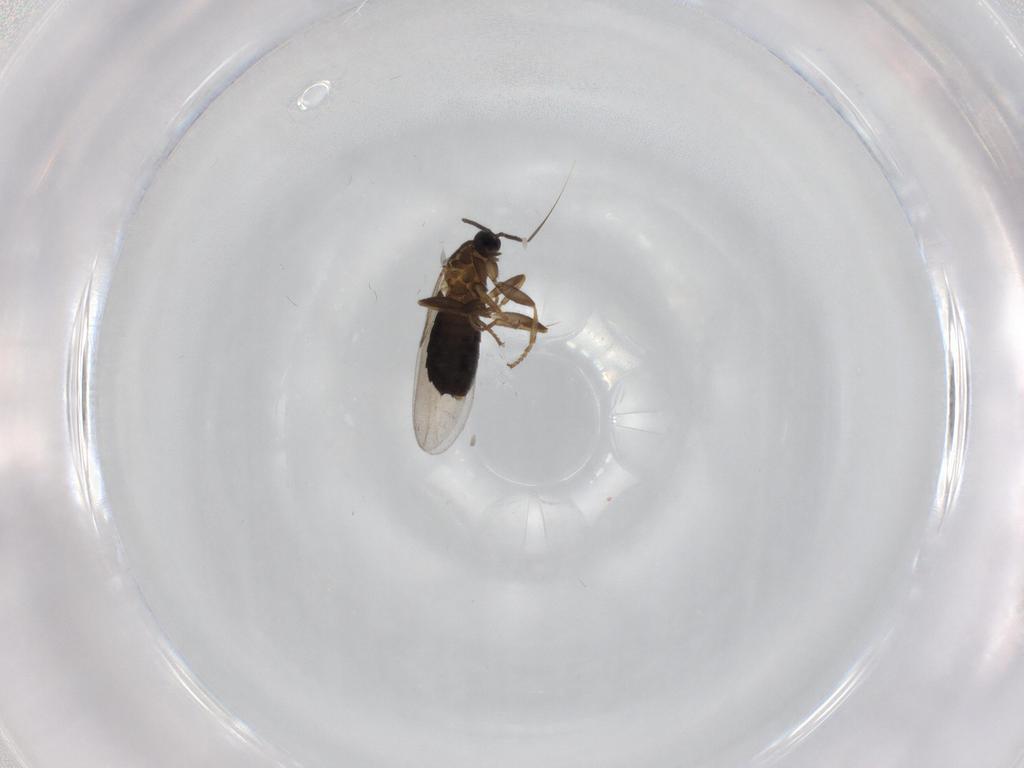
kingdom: Animalia
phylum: Arthropoda
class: Insecta
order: Diptera
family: Scatopsidae
